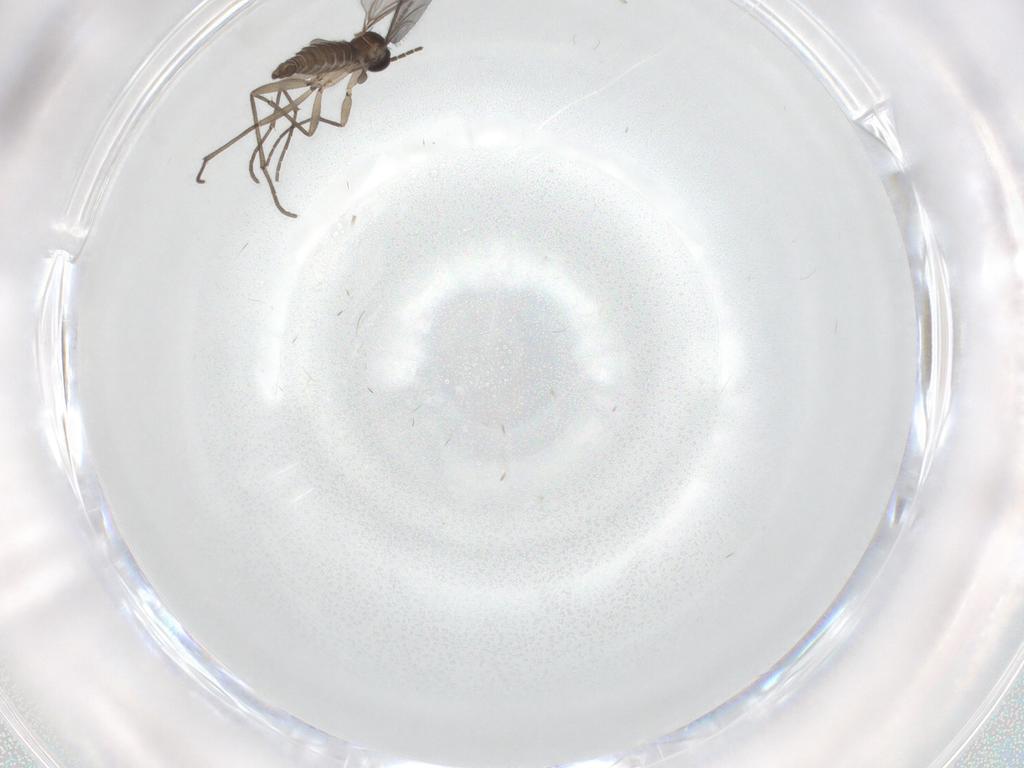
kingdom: Animalia
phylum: Arthropoda
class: Insecta
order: Diptera
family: Sciaridae
